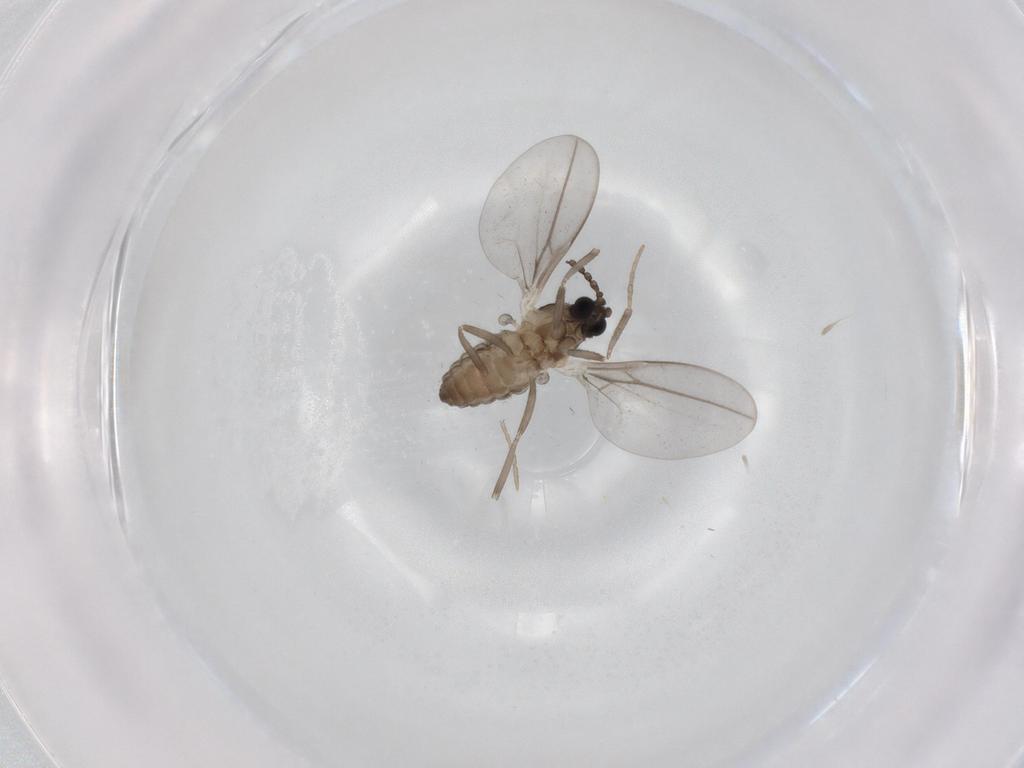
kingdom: Animalia
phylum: Arthropoda
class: Insecta
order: Diptera
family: Cecidomyiidae
